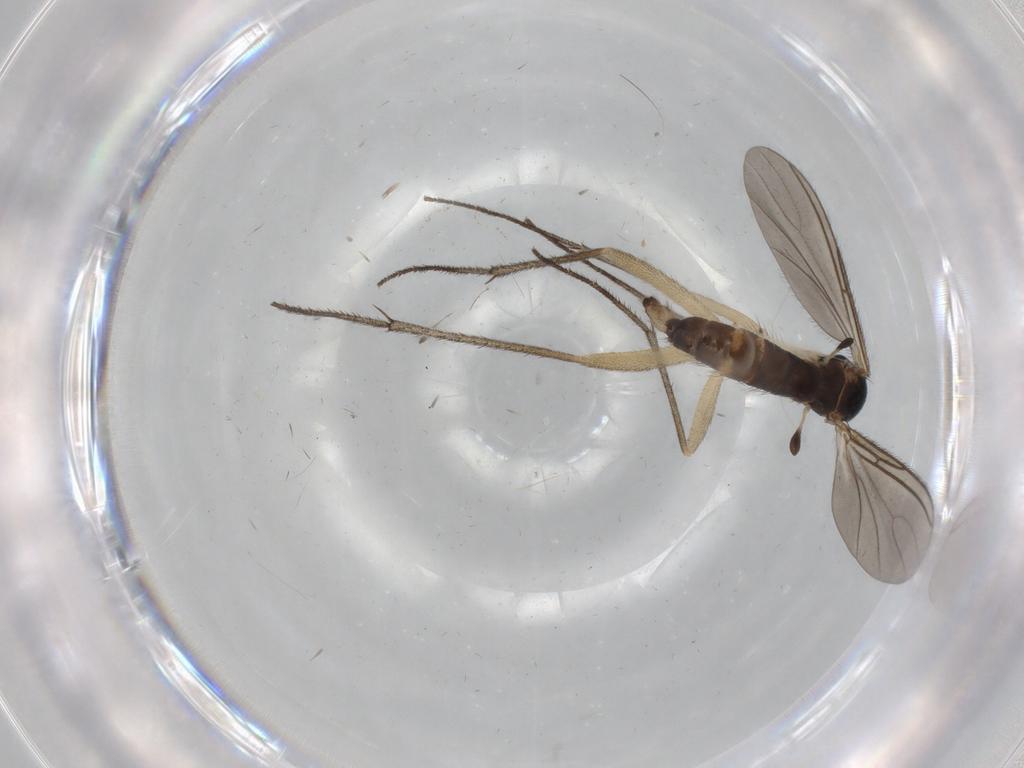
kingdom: Animalia
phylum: Arthropoda
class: Insecta
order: Diptera
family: Sciaridae
